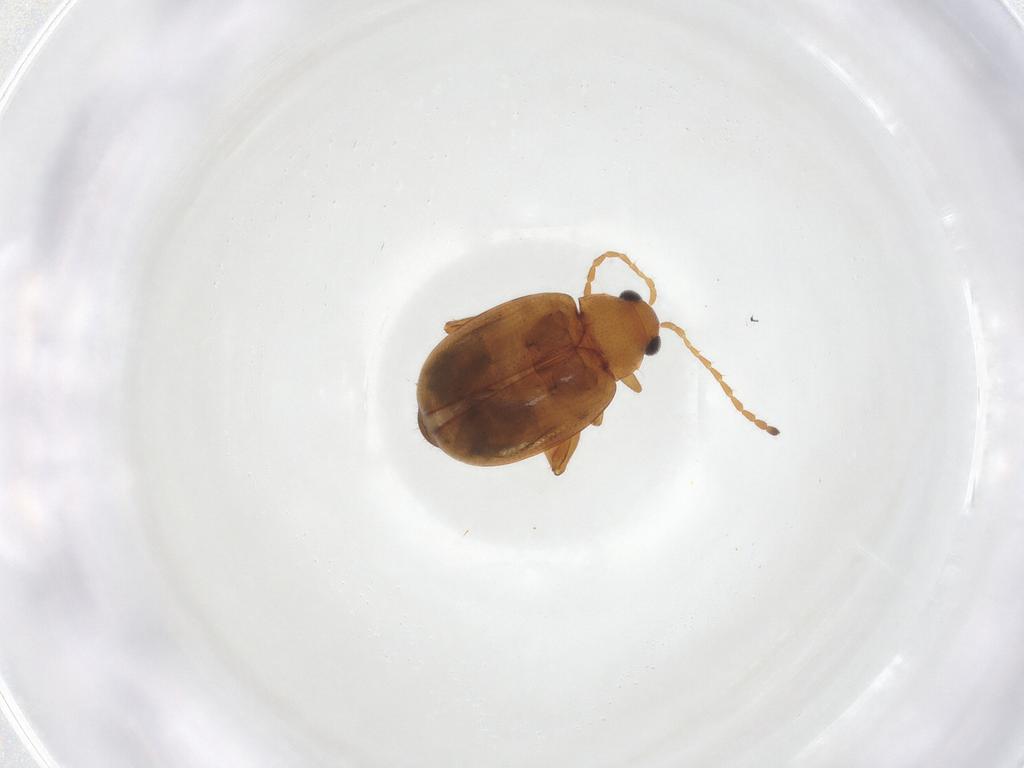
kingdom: Animalia
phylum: Arthropoda
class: Insecta
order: Coleoptera
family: Chrysomelidae
